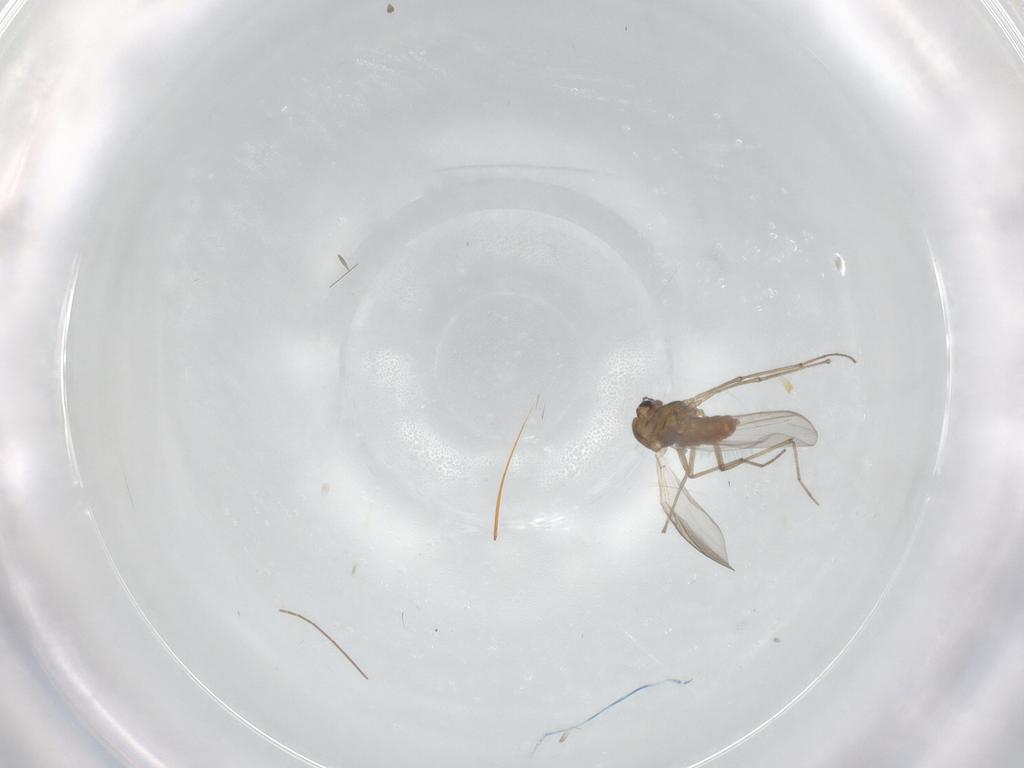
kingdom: Animalia
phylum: Arthropoda
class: Insecta
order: Diptera
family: Chironomidae
